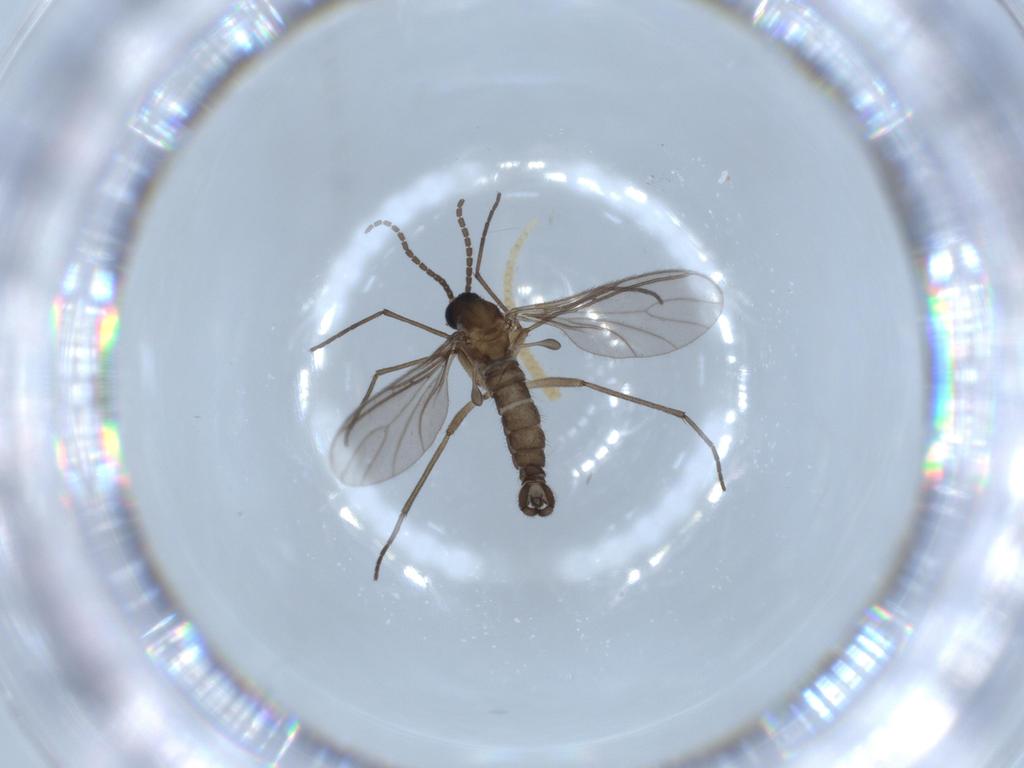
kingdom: Animalia
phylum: Arthropoda
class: Insecta
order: Diptera
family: Sciaridae
